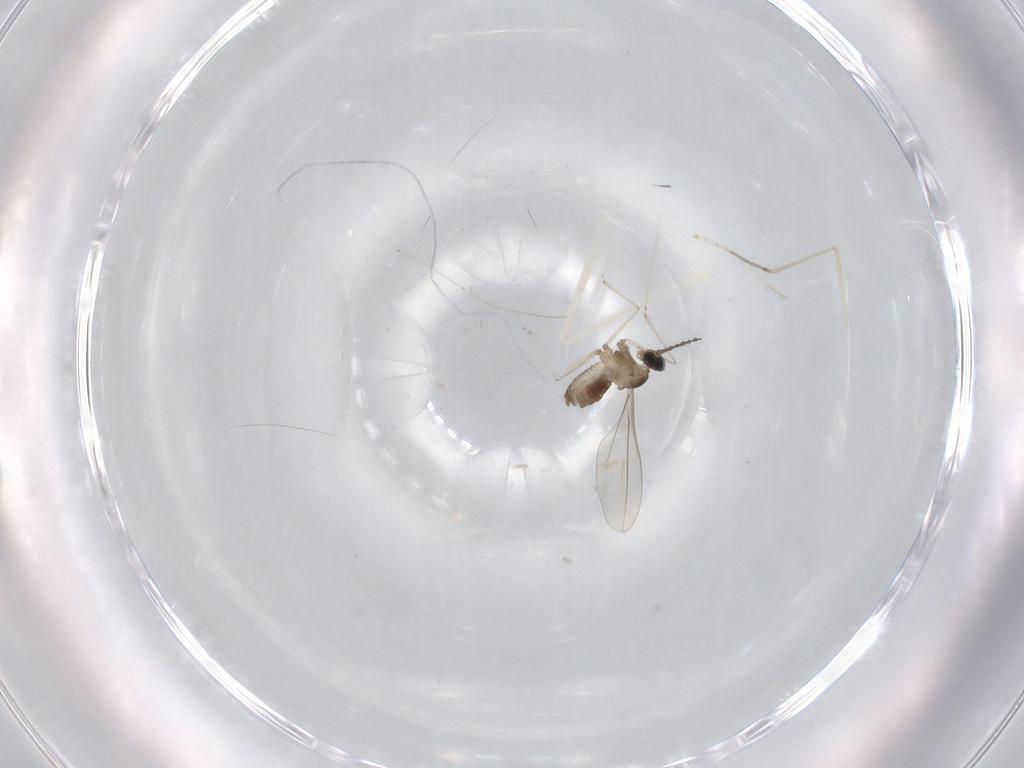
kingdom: Animalia
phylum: Arthropoda
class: Insecta
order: Diptera
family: Cecidomyiidae
